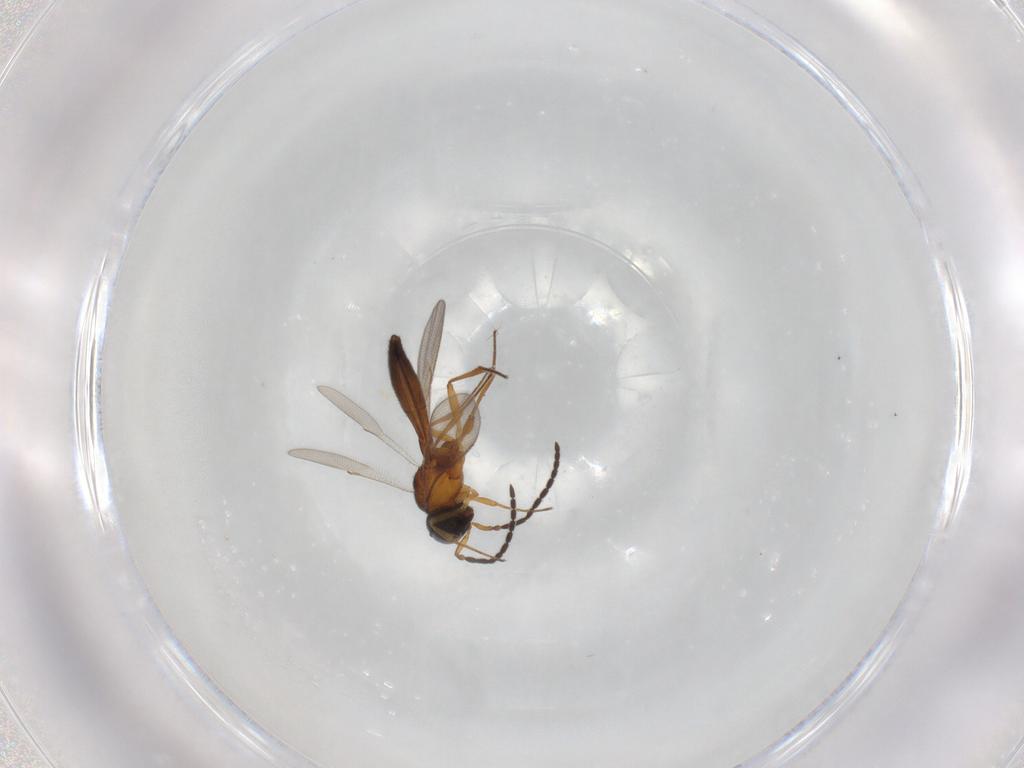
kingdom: Animalia
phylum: Arthropoda
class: Insecta
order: Hymenoptera
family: Scelionidae
